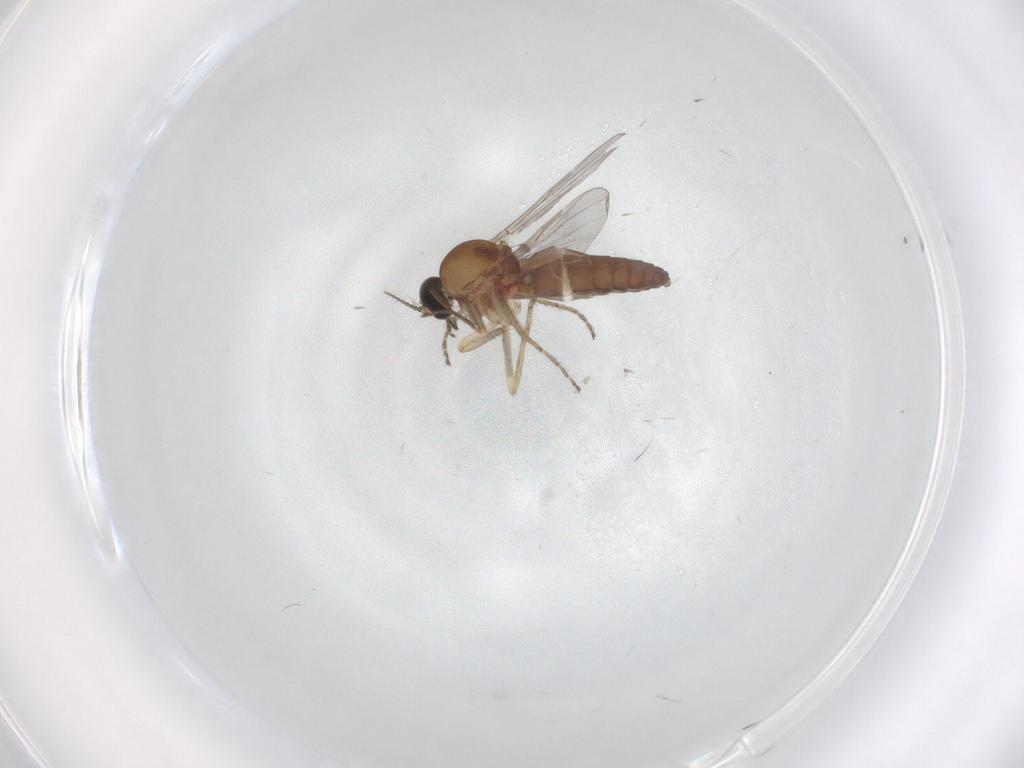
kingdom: Animalia
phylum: Arthropoda
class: Insecta
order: Diptera
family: Ceratopogonidae
